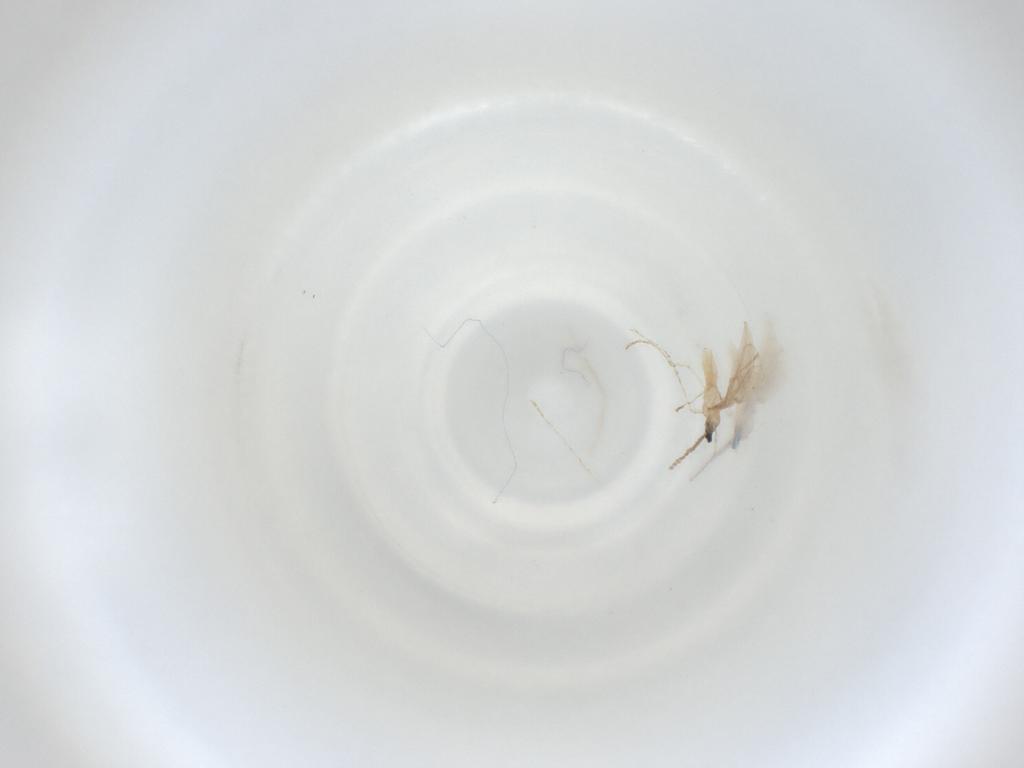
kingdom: Animalia
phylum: Arthropoda
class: Insecta
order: Diptera
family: Cecidomyiidae
